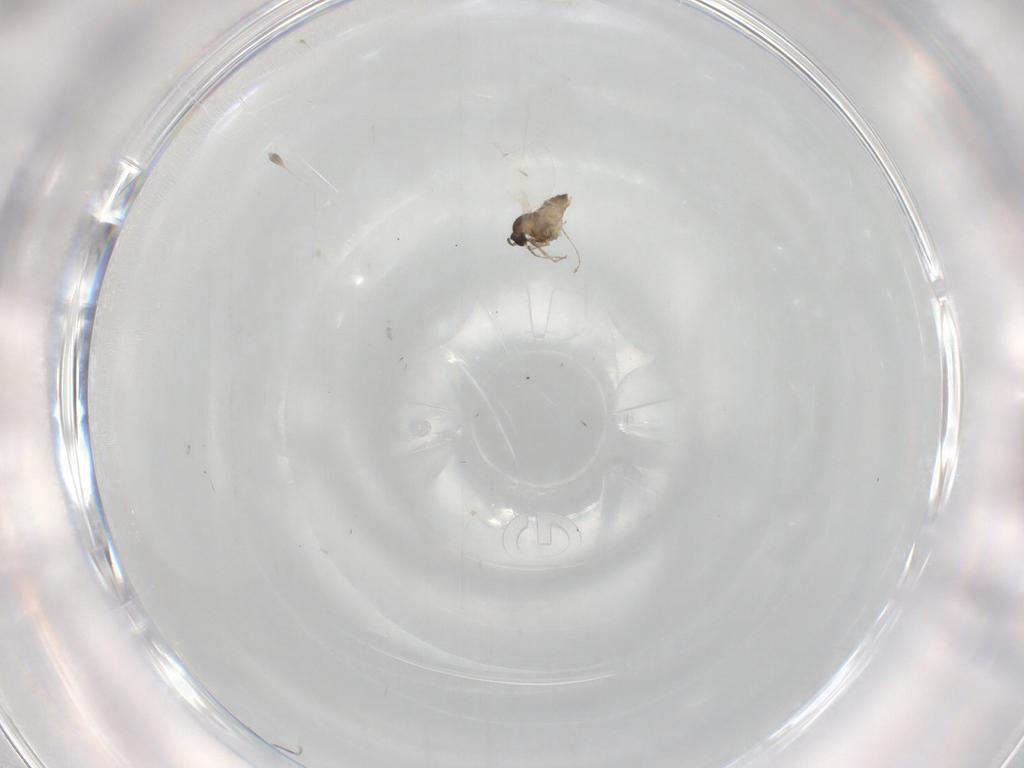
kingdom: Animalia
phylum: Arthropoda
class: Insecta
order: Diptera
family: Cecidomyiidae
